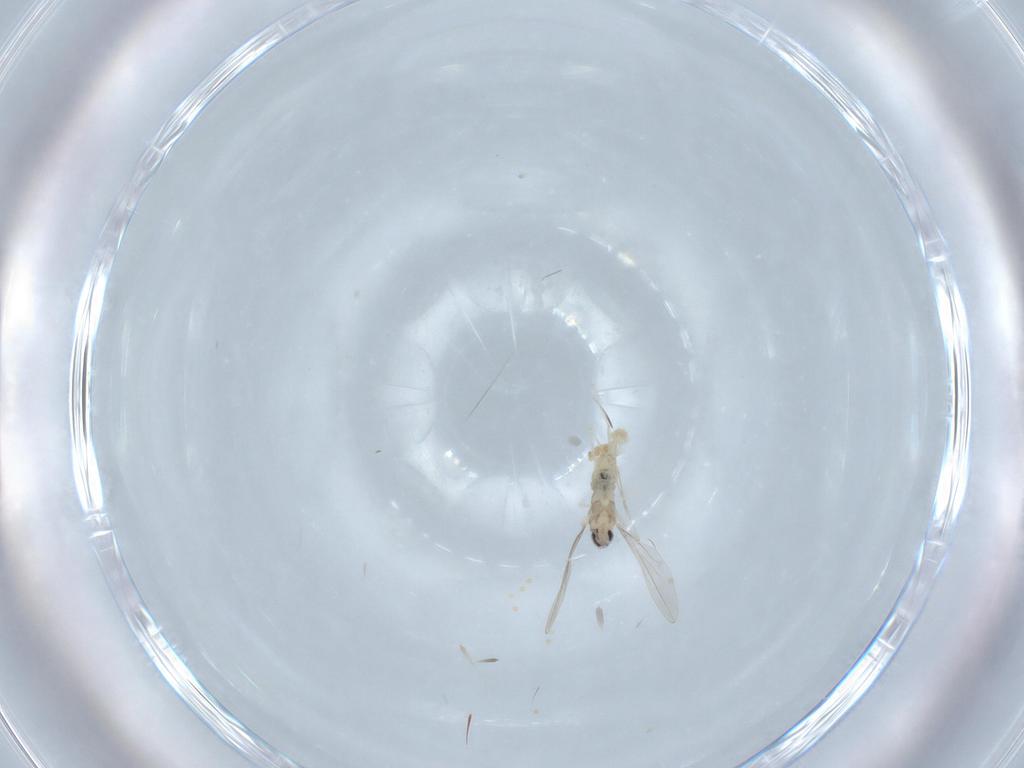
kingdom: Animalia
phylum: Arthropoda
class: Insecta
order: Diptera
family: Cecidomyiidae
